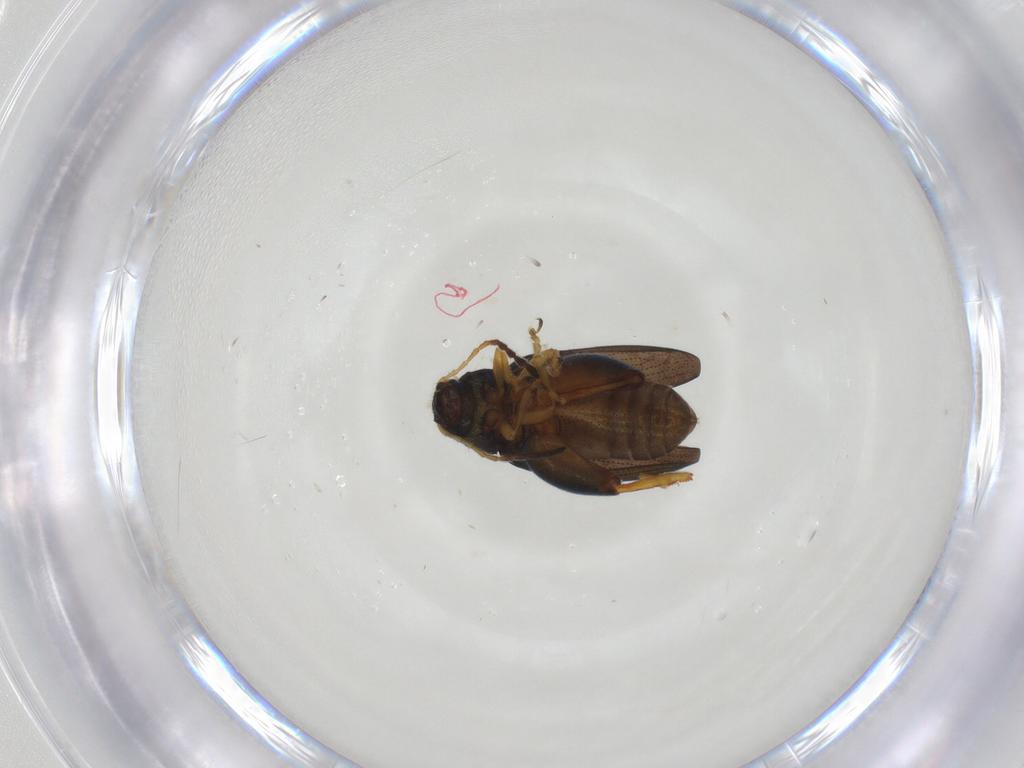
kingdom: Animalia
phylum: Arthropoda
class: Insecta
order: Coleoptera
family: Chrysomelidae
